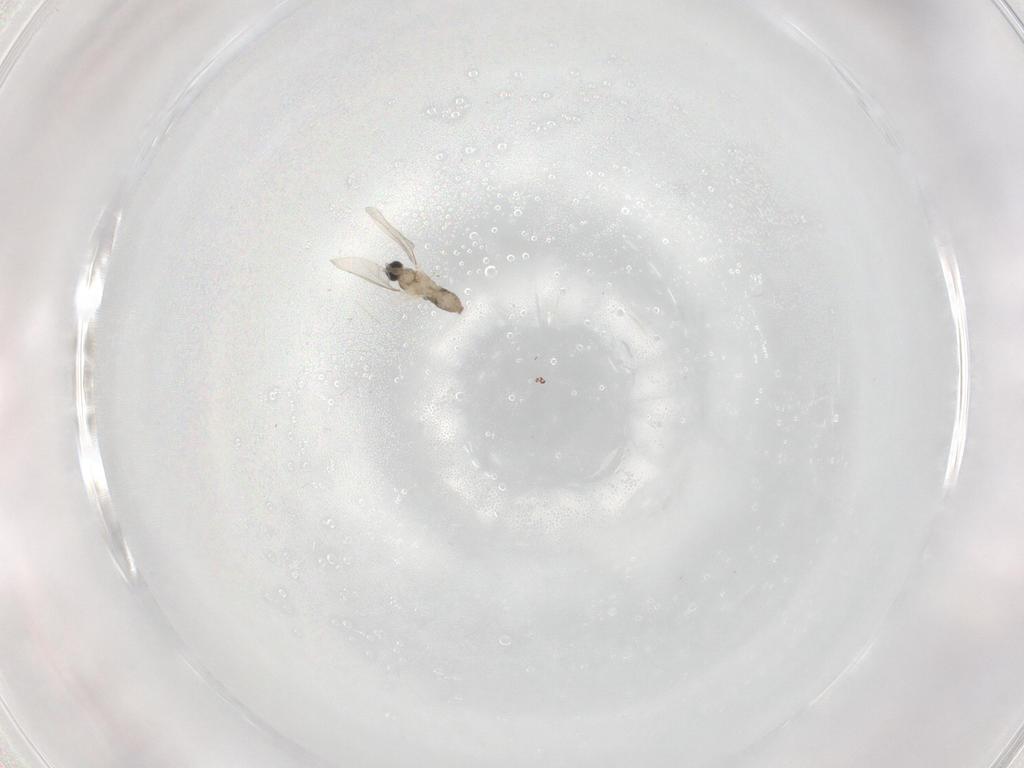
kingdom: Animalia
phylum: Arthropoda
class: Insecta
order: Diptera
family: Cecidomyiidae
